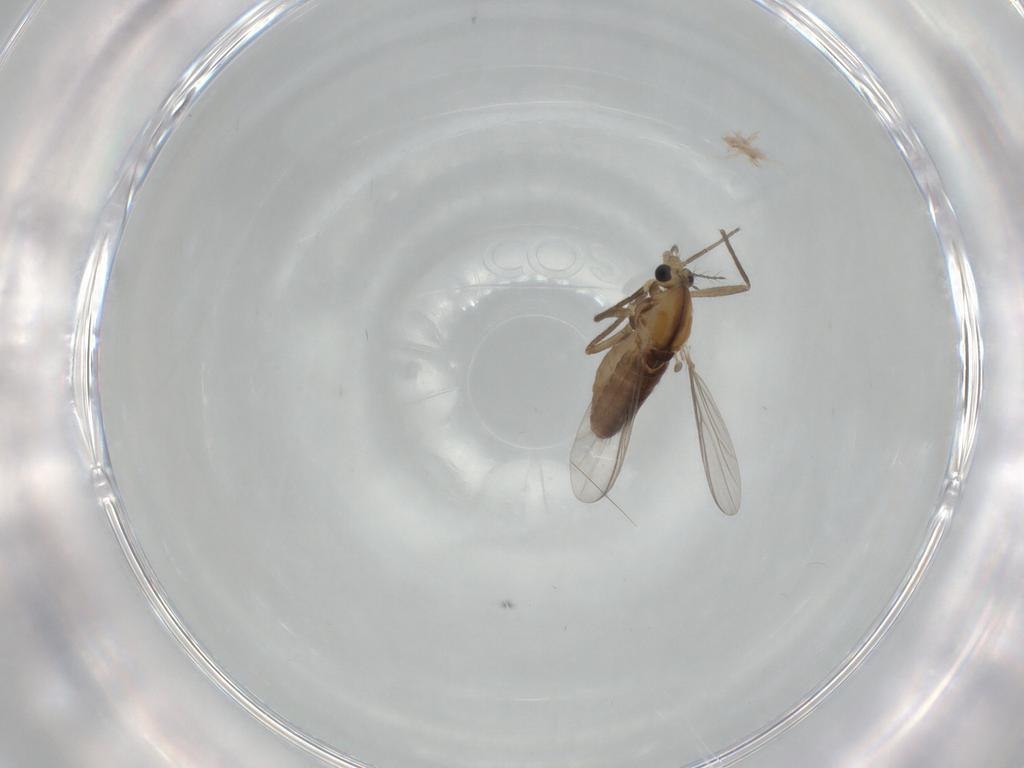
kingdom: Animalia
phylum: Arthropoda
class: Insecta
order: Diptera
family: Chironomidae
